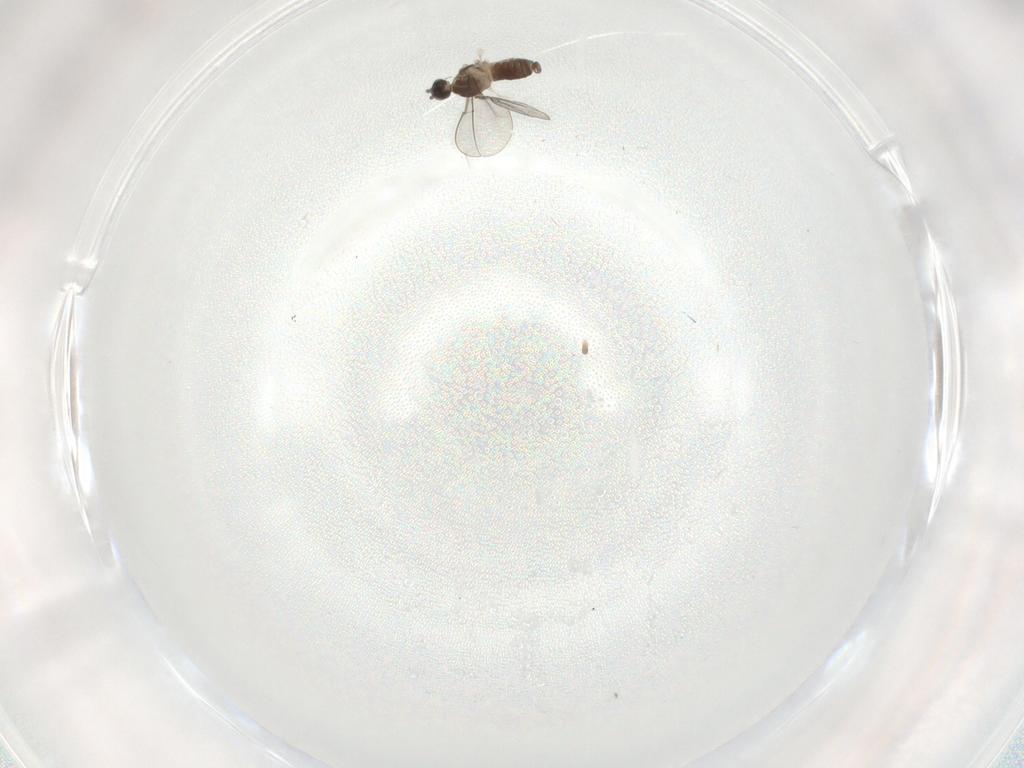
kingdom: Animalia
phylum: Arthropoda
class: Insecta
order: Diptera
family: Cecidomyiidae
